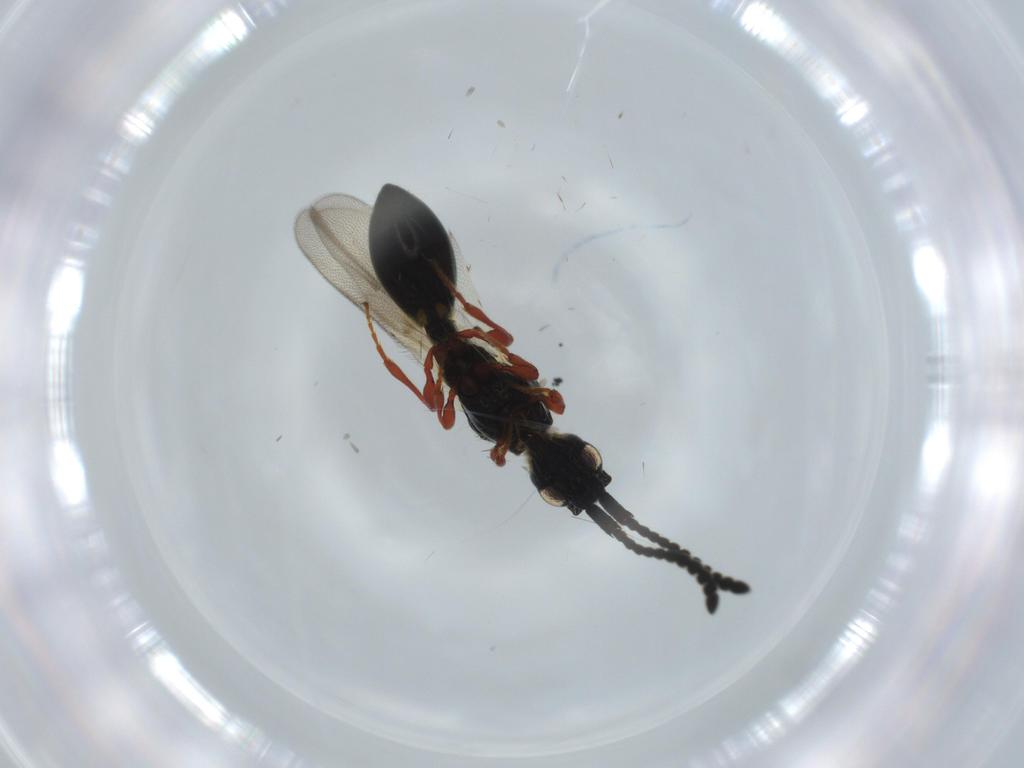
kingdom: Animalia
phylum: Arthropoda
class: Insecta
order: Hymenoptera
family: Diapriidae
